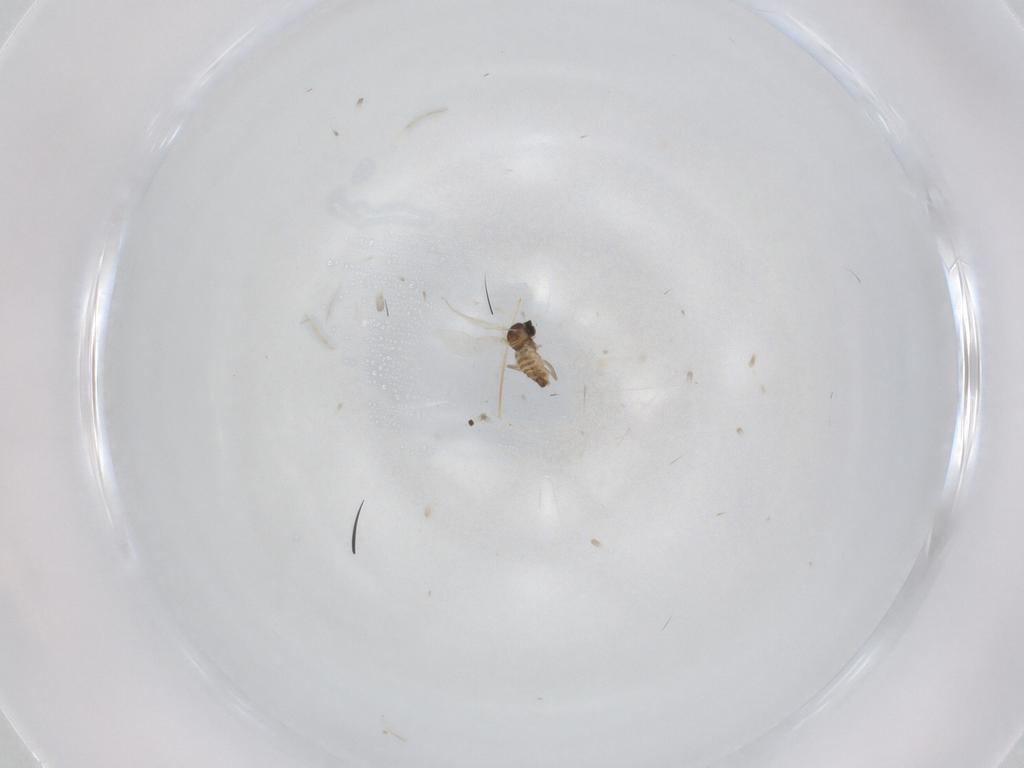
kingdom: Animalia
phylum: Arthropoda
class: Insecta
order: Diptera
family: Cecidomyiidae
